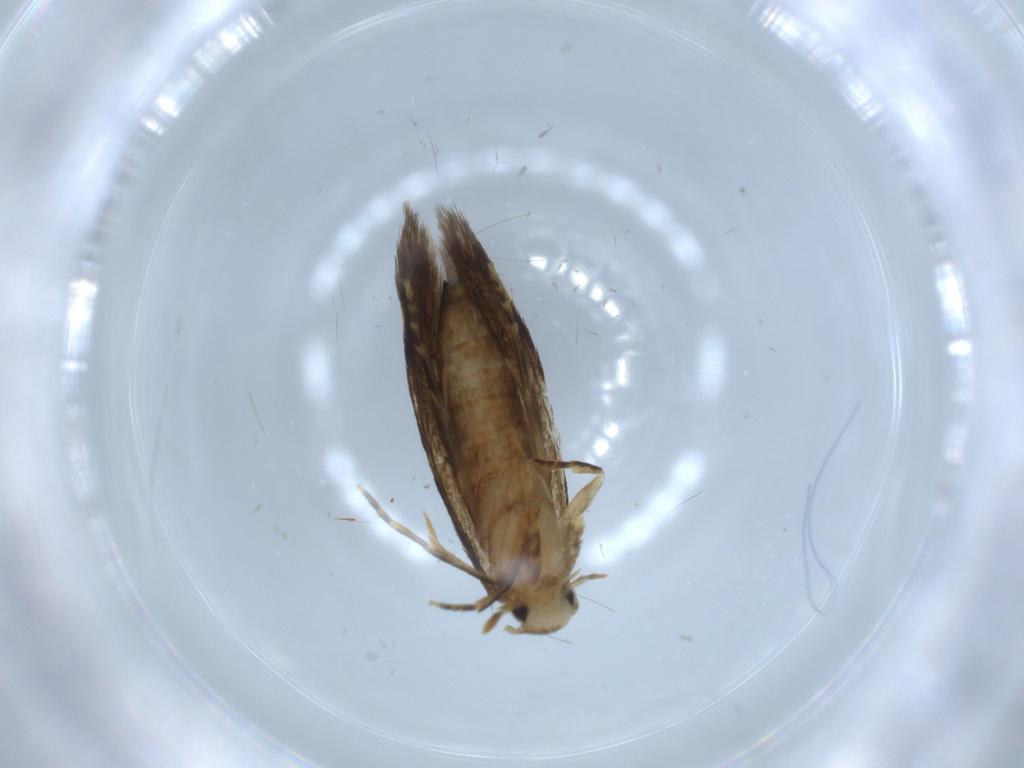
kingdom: Animalia
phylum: Arthropoda
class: Insecta
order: Lepidoptera
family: Tineidae
